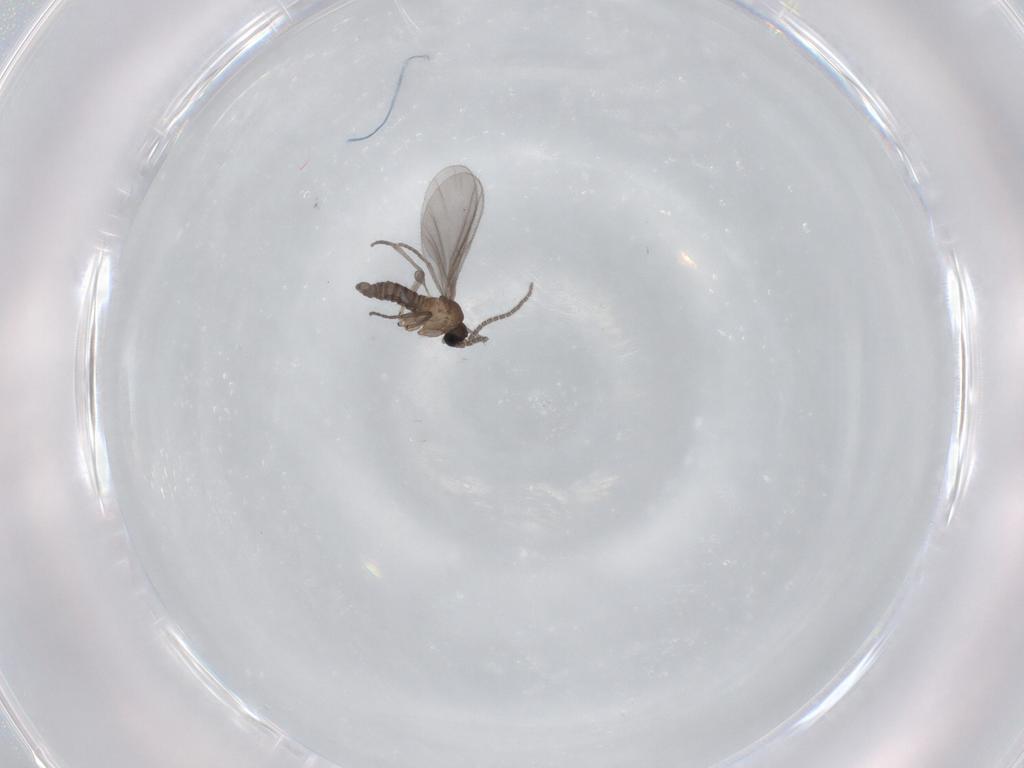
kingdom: Animalia
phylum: Arthropoda
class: Insecta
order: Diptera
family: Sciaridae
